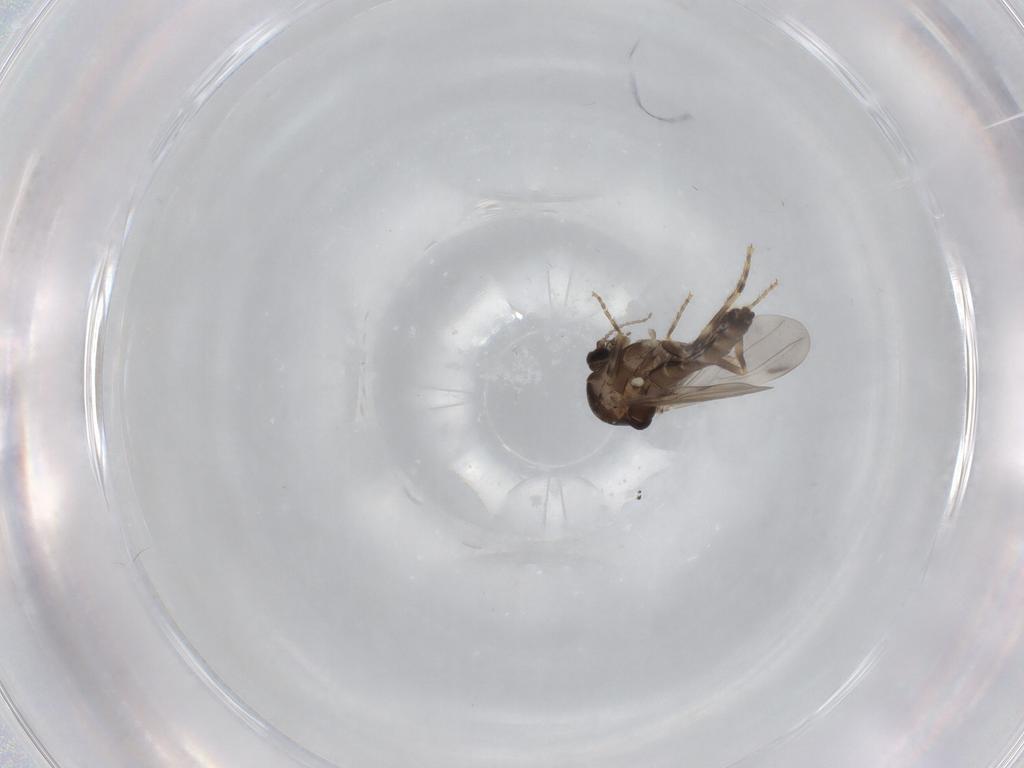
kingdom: Animalia
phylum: Arthropoda
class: Insecta
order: Diptera
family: Ceratopogonidae
